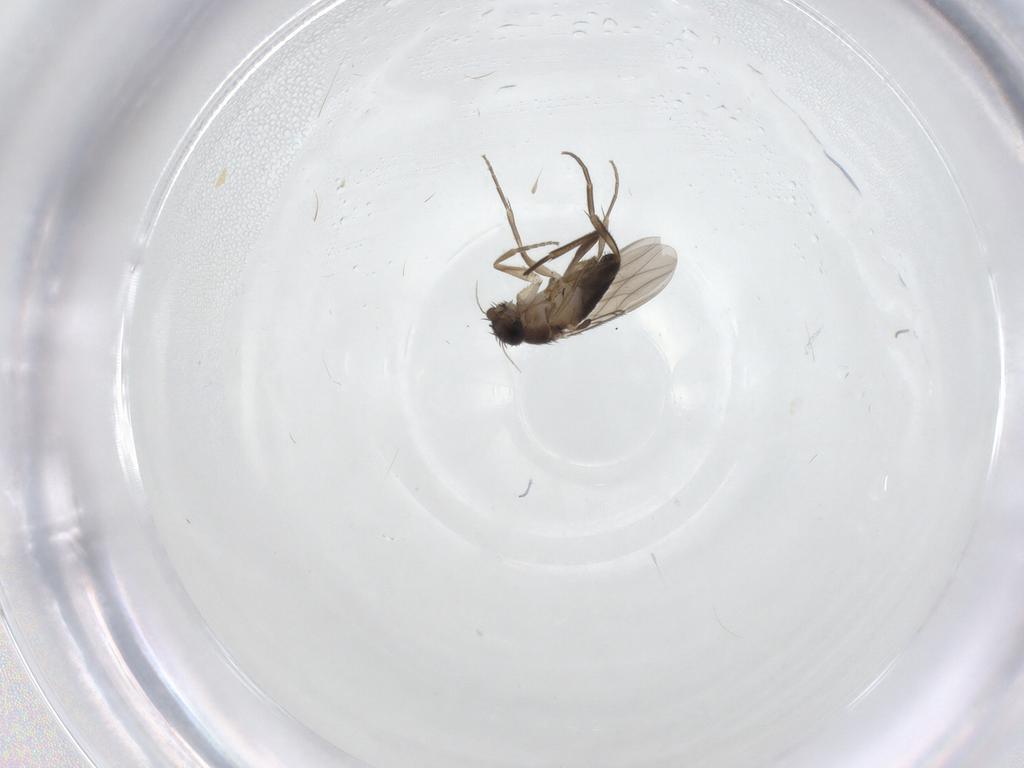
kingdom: Animalia
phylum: Arthropoda
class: Insecta
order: Diptera
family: Phoridae
